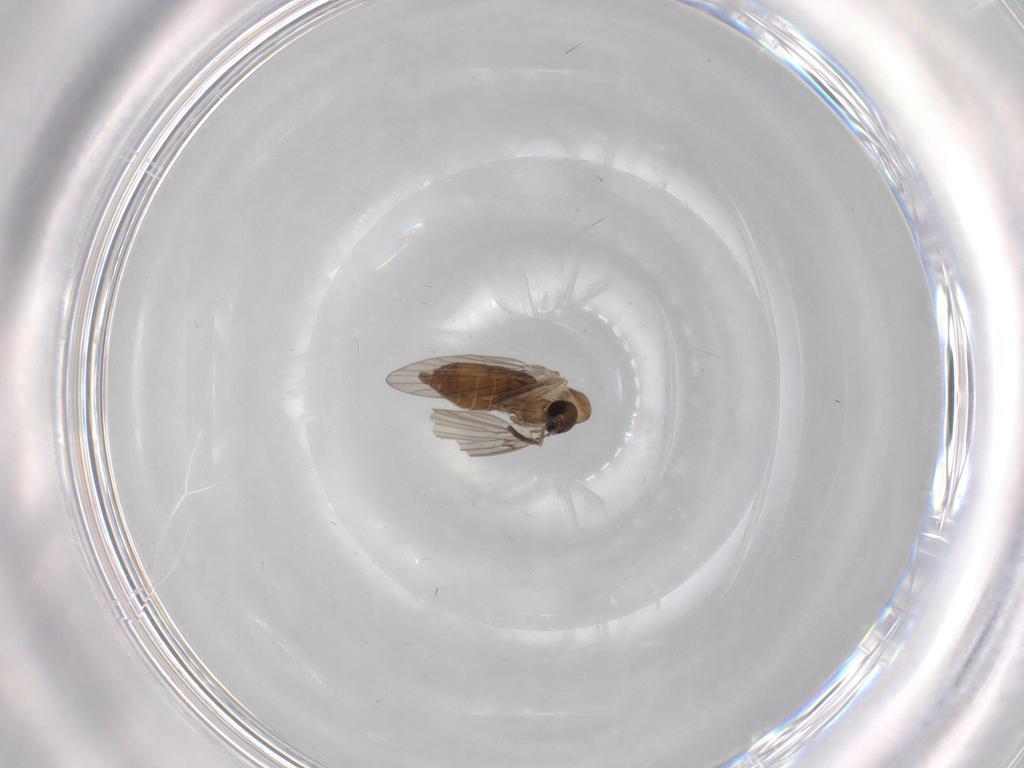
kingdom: Animalia
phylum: Arthropoda
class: Insecta
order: Diptera
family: Psychodidae
